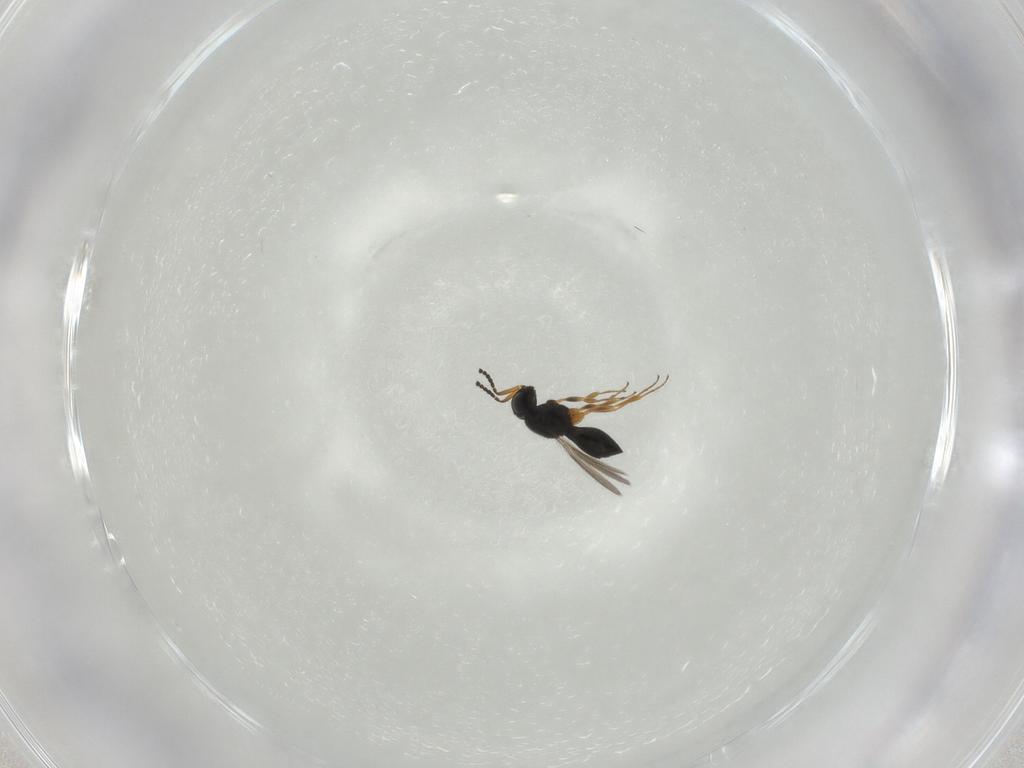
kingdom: Animalia
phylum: Arthropoda
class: Insecta
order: Hymenoptera
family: Scelionidae
